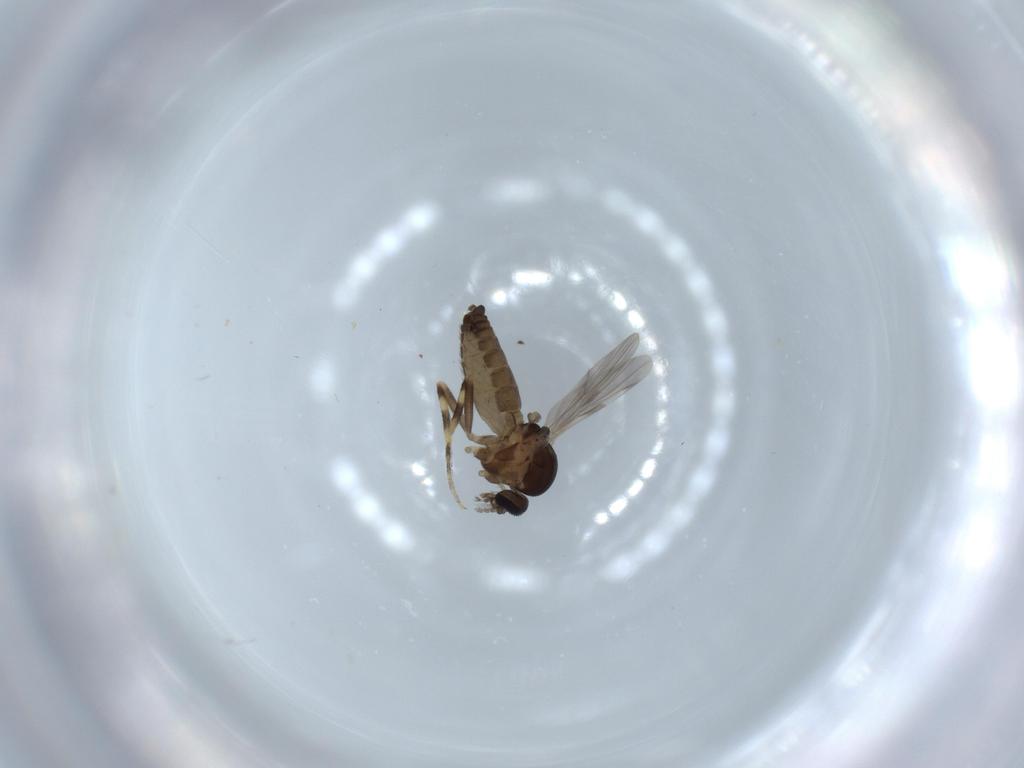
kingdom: Animalia
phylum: Arthropoda
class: Insecta
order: Diptera
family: Ceratopogonidae
